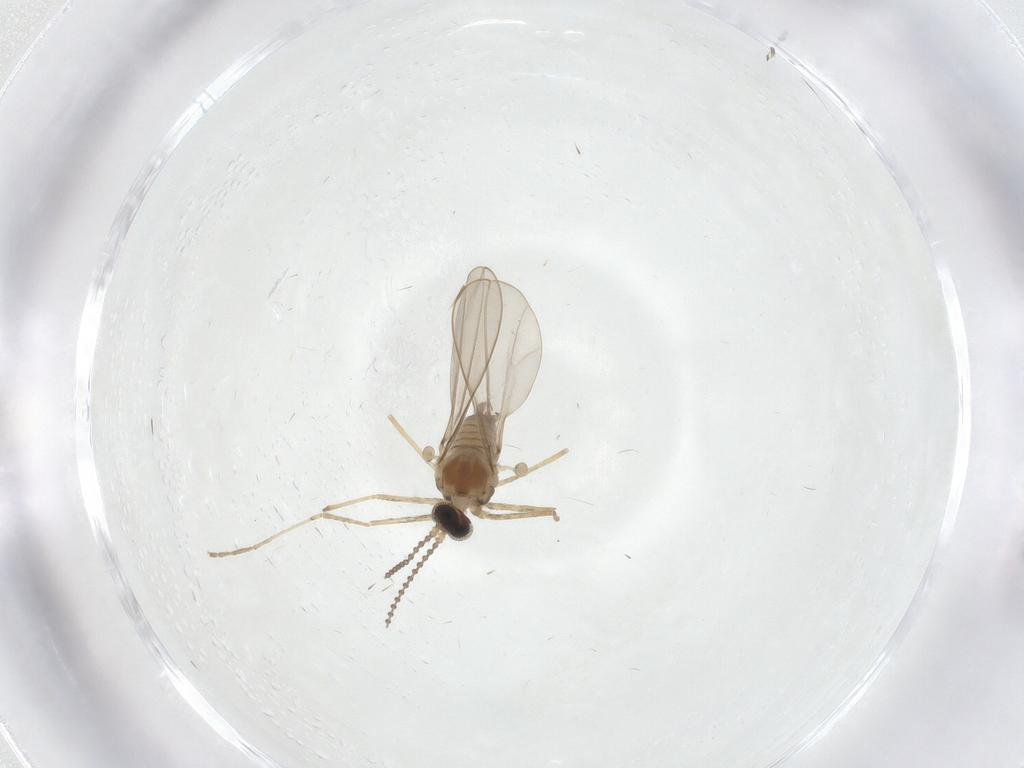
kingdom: Animalia
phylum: Arthropoda
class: Insecta
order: Diptera
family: Cecidomyiidae
